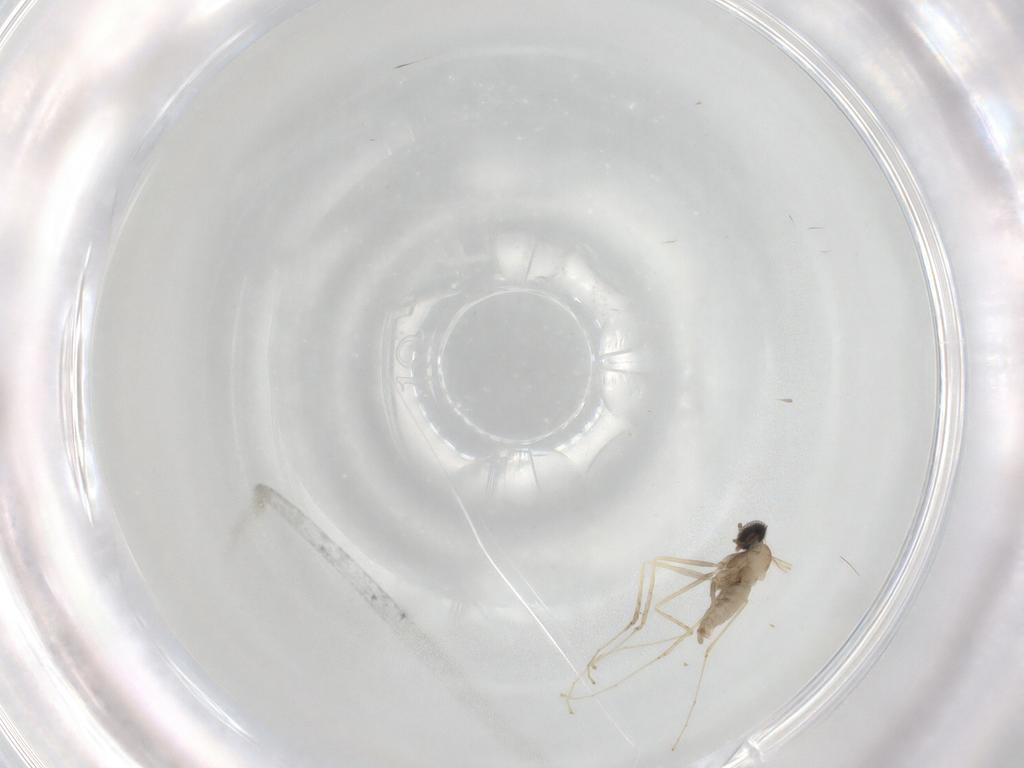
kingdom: Animalia
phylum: Arthropoda
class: Insecta
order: Diptera
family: Cecidomyiidae
